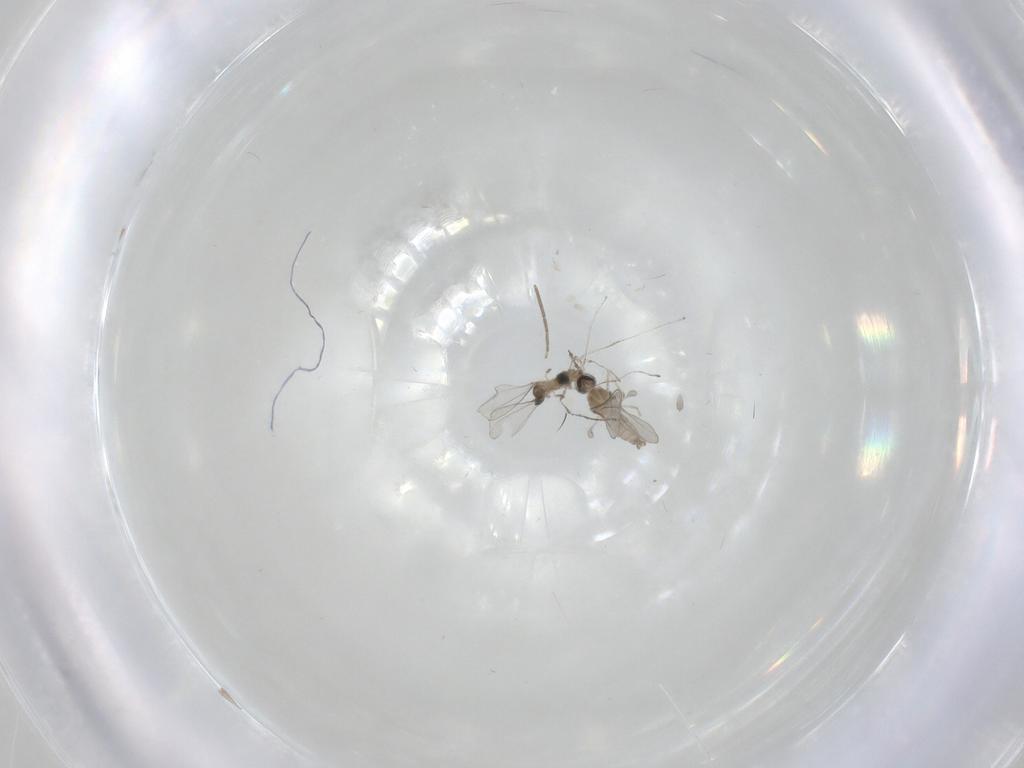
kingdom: Animalia
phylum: Arthropoda
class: Insecta
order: Diptera
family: Cecidomyiidae
